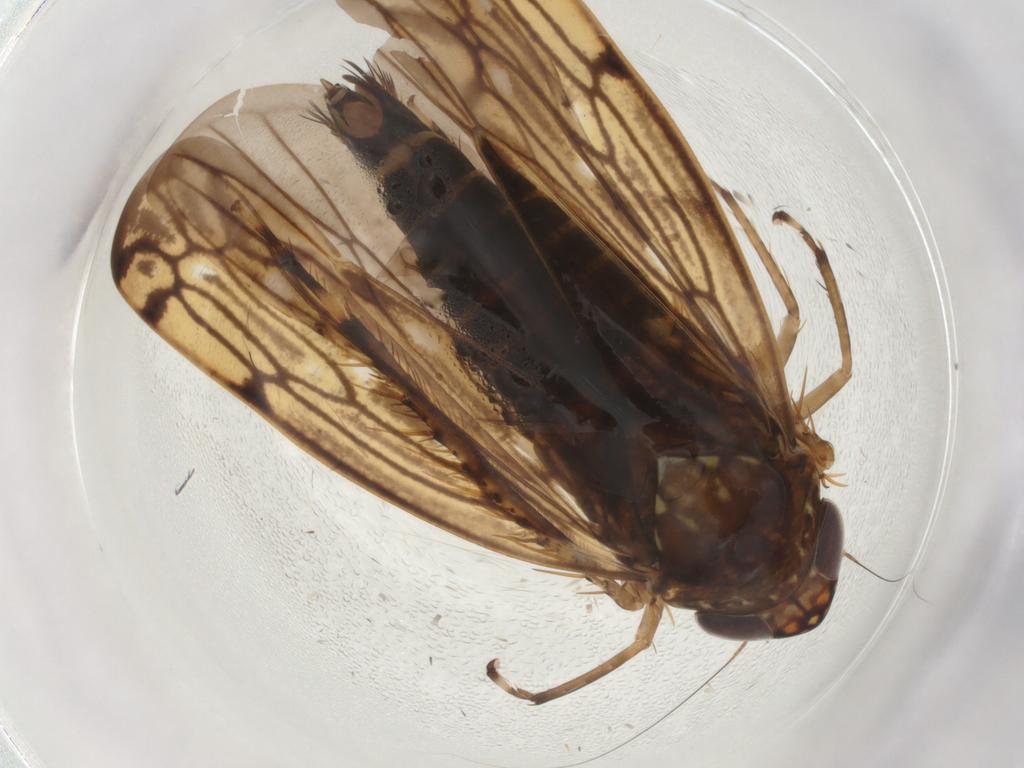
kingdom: Animalia
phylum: Arthropoda
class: Insecta
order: Hemiptera
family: Cicadellidae
